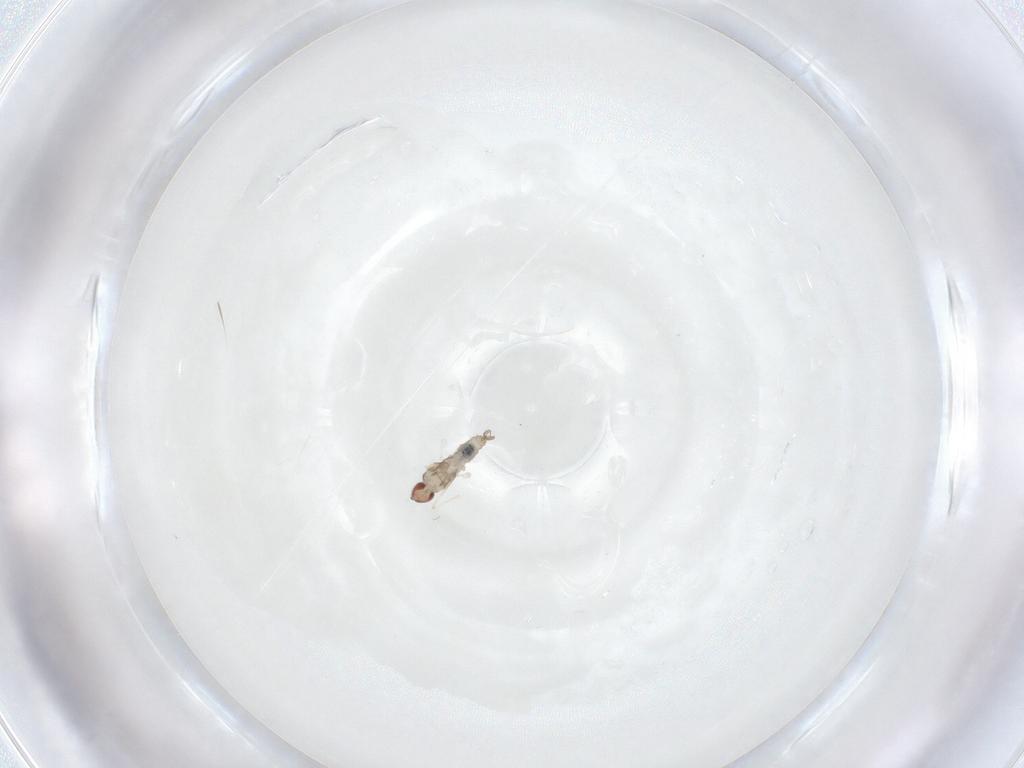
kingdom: Animalia
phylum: Arthropoda
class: Insecta
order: Diptera
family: Cecidomyiidae
